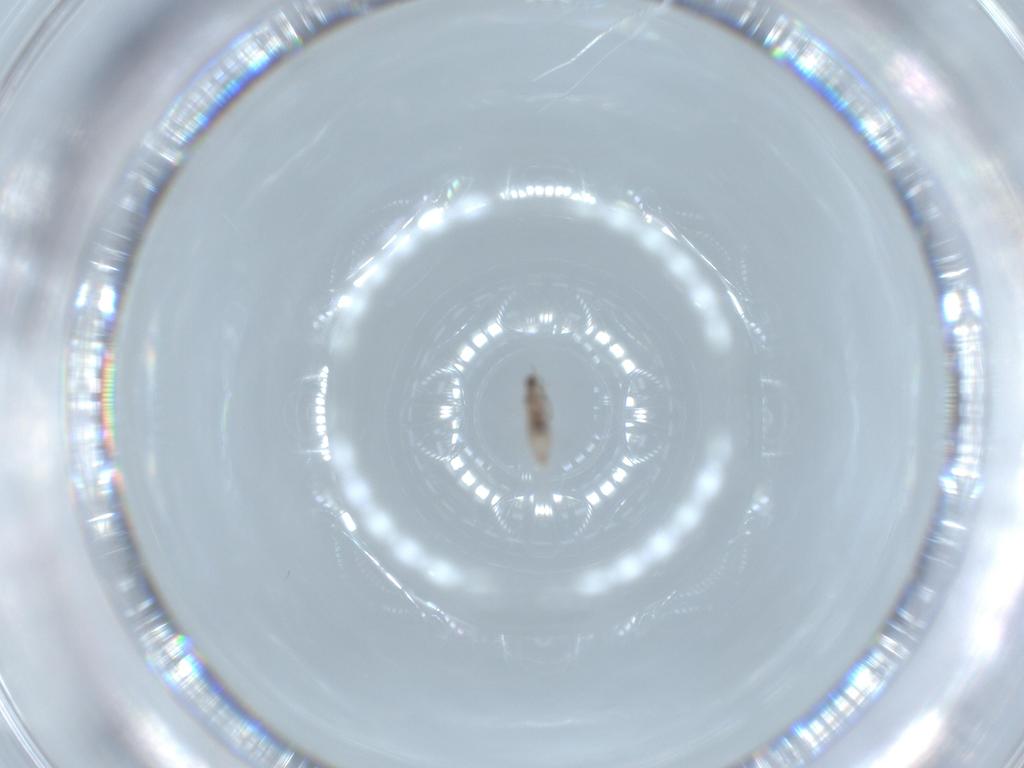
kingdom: Animalia
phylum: Arthropoda
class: Insecta
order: Diptera
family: Cecidomyiidae
